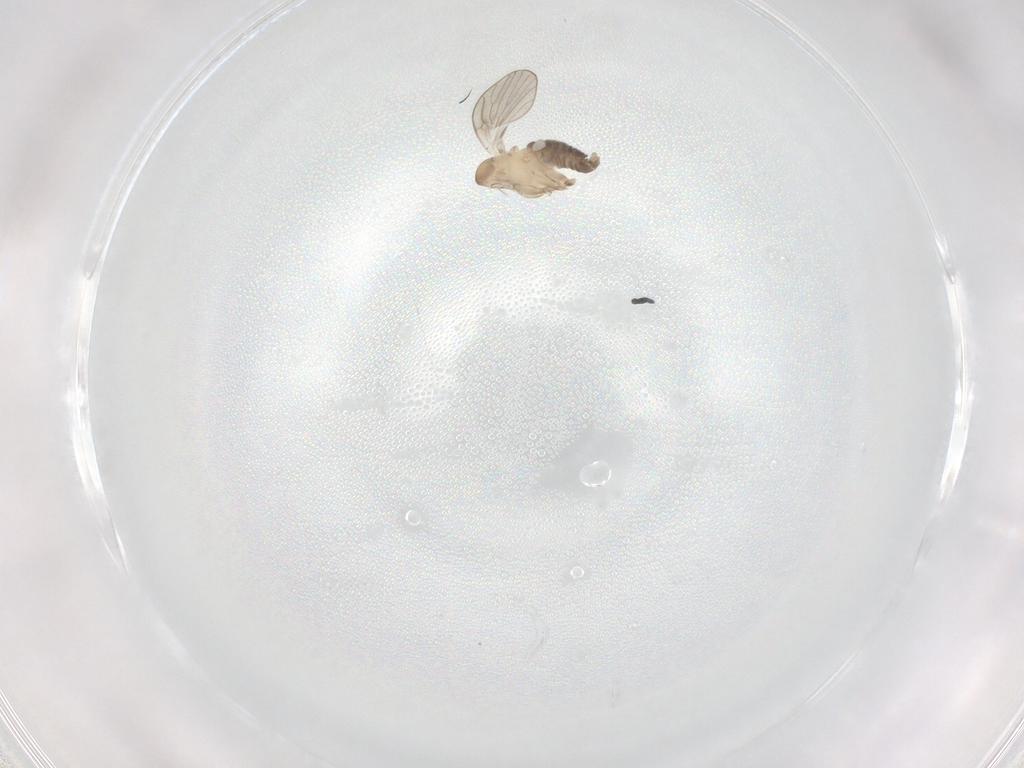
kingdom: Animalia
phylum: Arthropoda
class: Insecta
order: Diptera
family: Psychodidae
